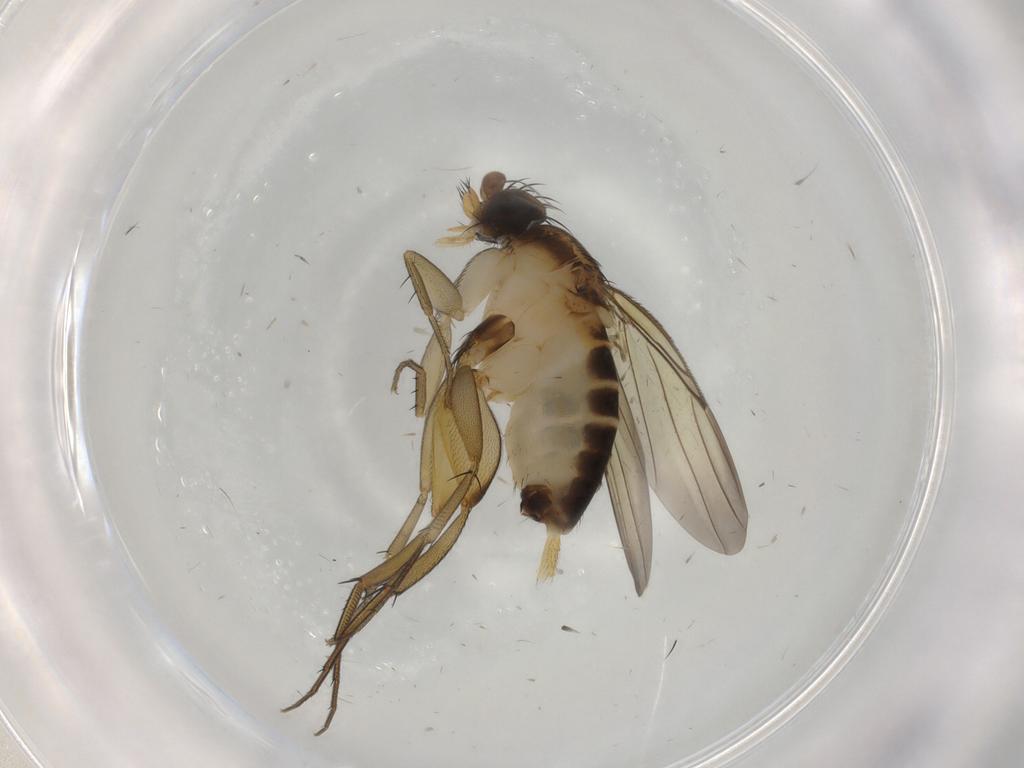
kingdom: Animalia
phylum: Arthropoda
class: Insecta
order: Diptera
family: Phoridae
